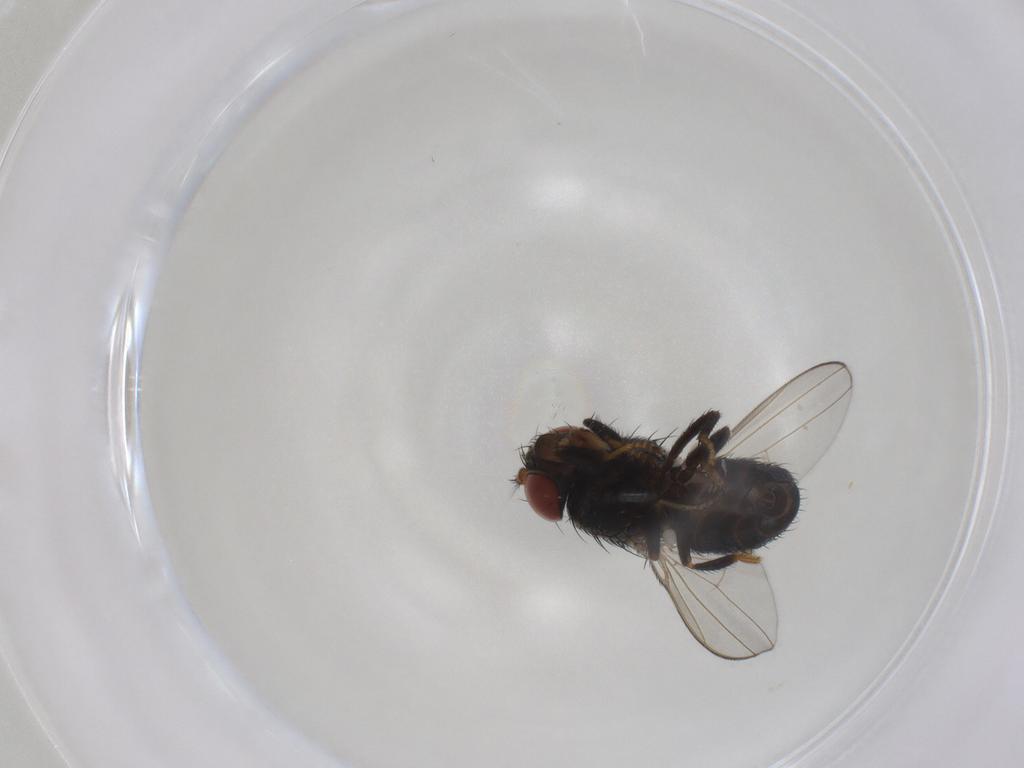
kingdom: Animalia
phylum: Arthropoda
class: Insecta
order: Diptera
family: Ephydridae
